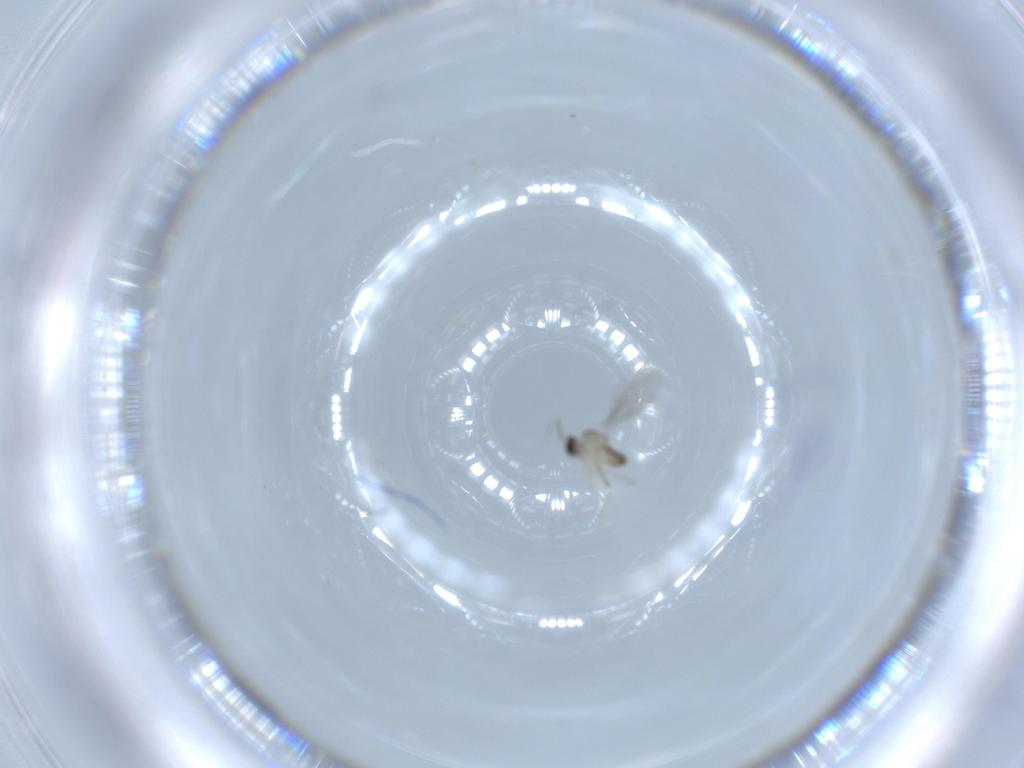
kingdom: Animalia
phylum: Arthropoda
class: Insecta
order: Diptera
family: Cecidomyiidae
